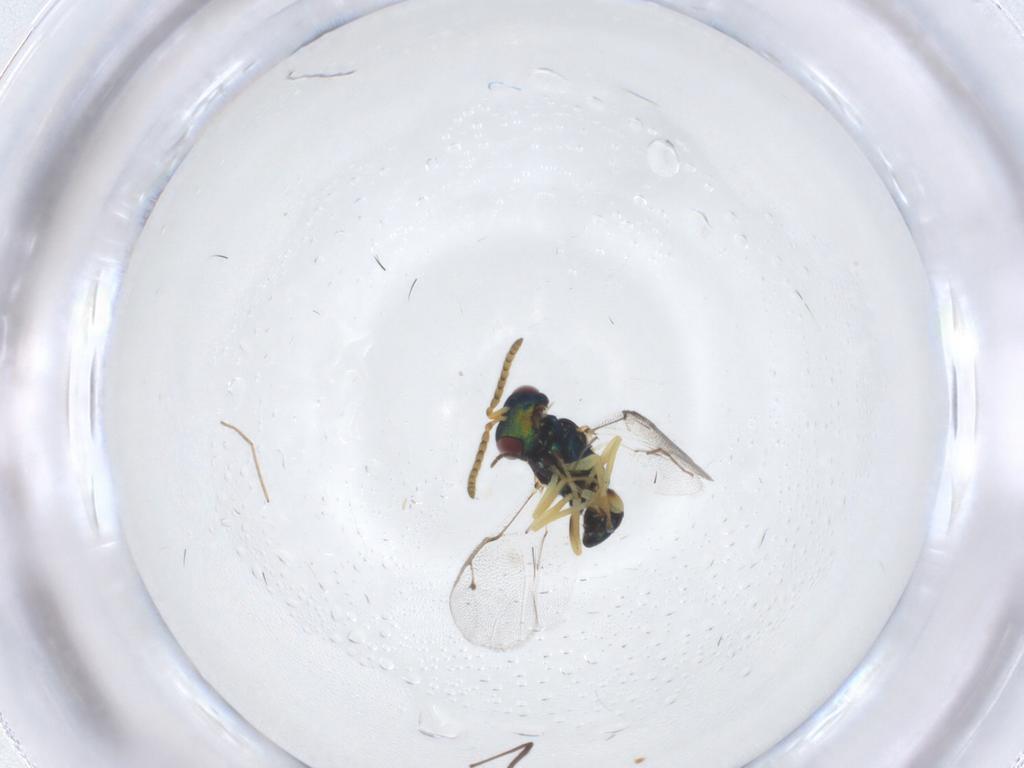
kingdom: Animalia
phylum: Arthropoda
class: Insecta
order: Hymenoptera
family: Pteromalidae
